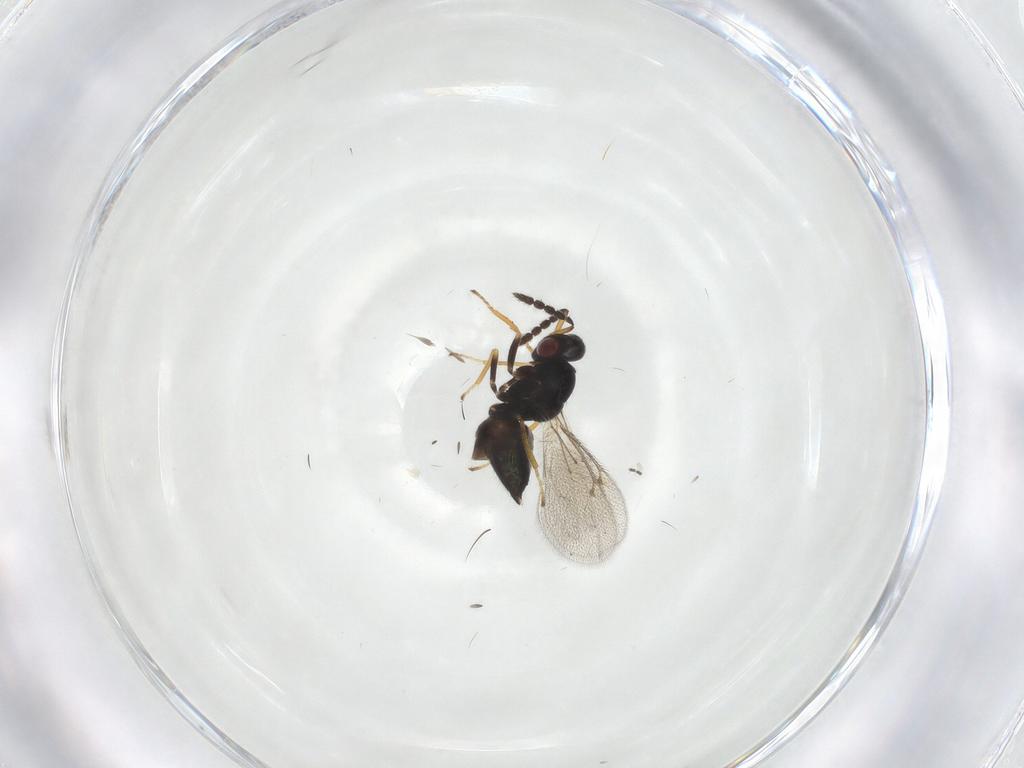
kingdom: Animalia
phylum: Arthropoda
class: Insecta
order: Hymenoptera
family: Eulophidae
